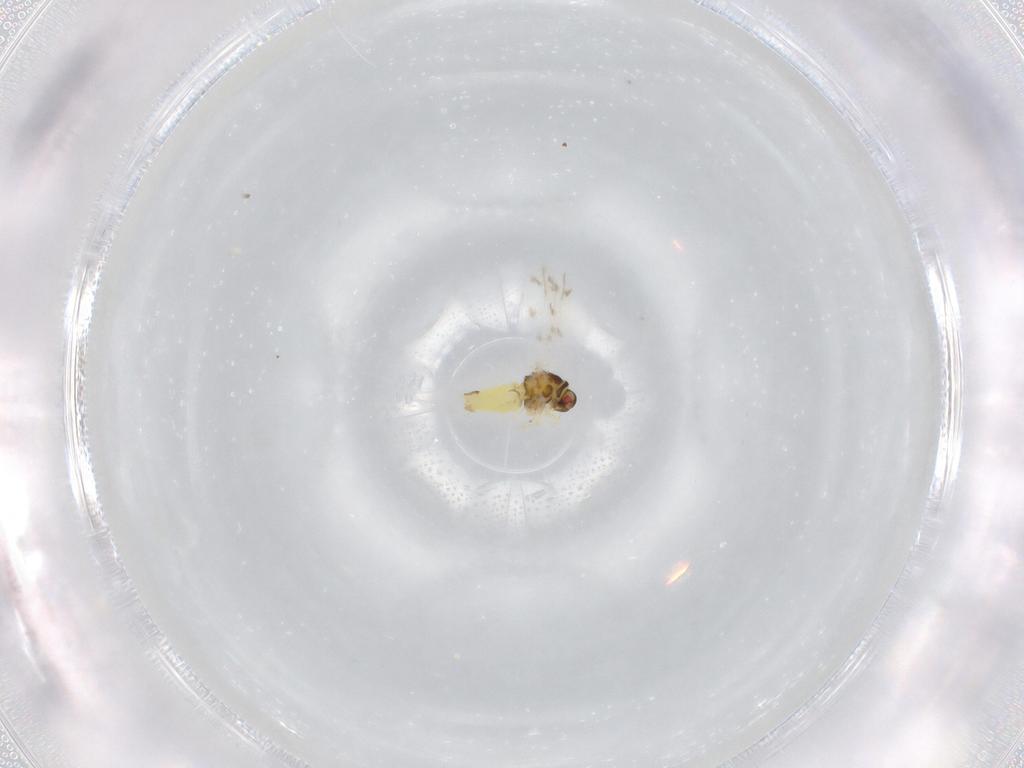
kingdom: Animalia
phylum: Arthropoda
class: Insecta
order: Hemiptera
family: Aleyrodidae
